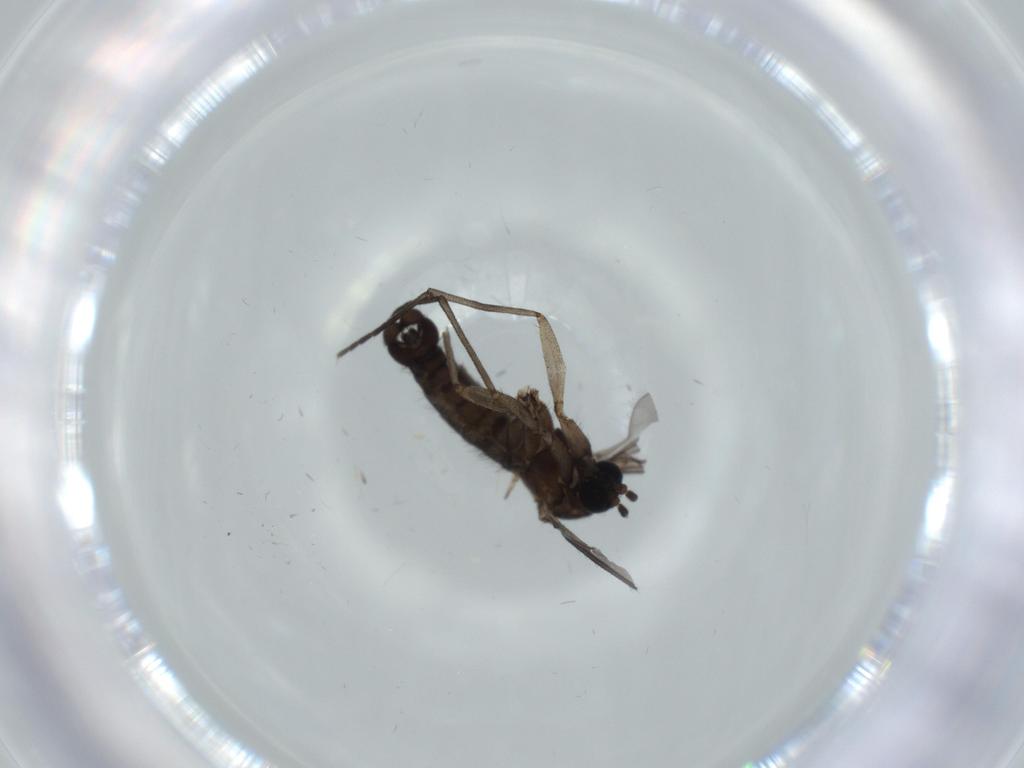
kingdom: Animalia
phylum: Arthropoda
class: Insecta
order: Diptera
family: Sciaridae
